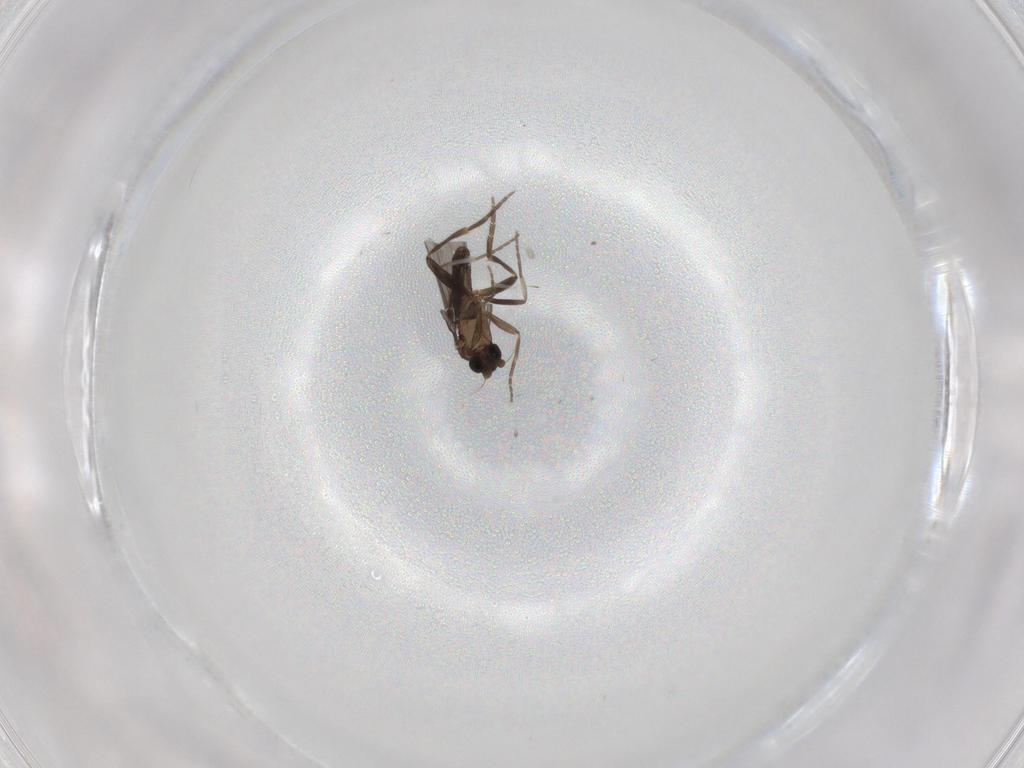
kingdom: Animalia
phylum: Arthropoda
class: Insecta
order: Diptera
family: Phoridae
